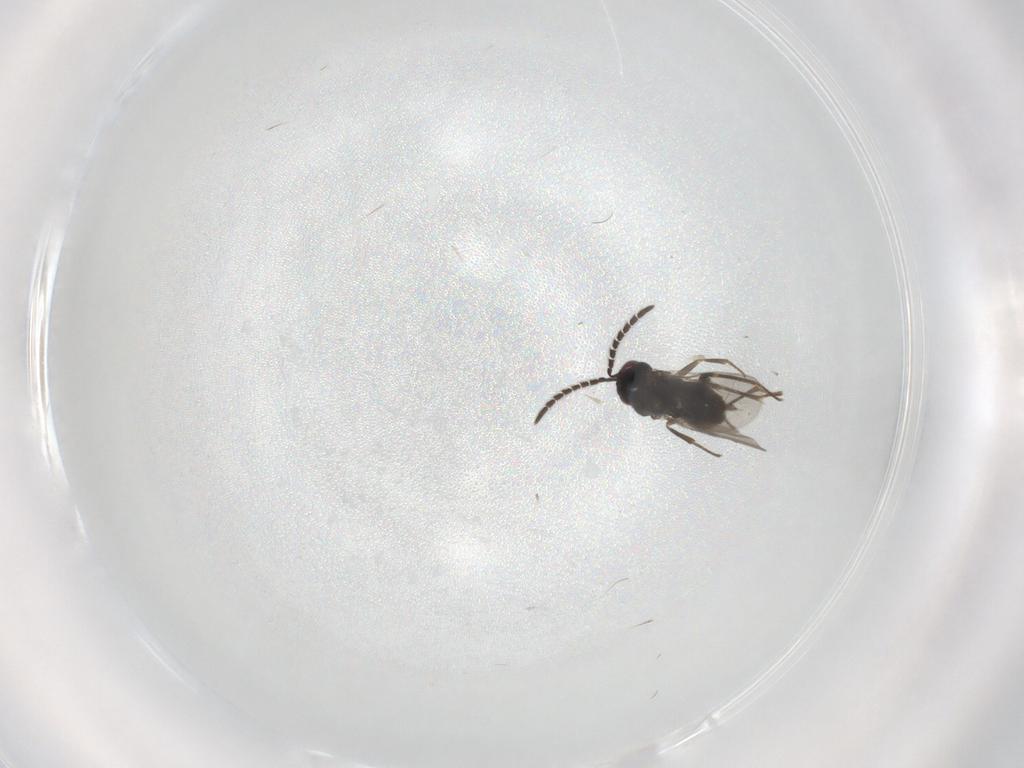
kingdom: Animalia
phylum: Arthropoda
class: Insecta
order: Hymenoptera
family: Encyrtidae
